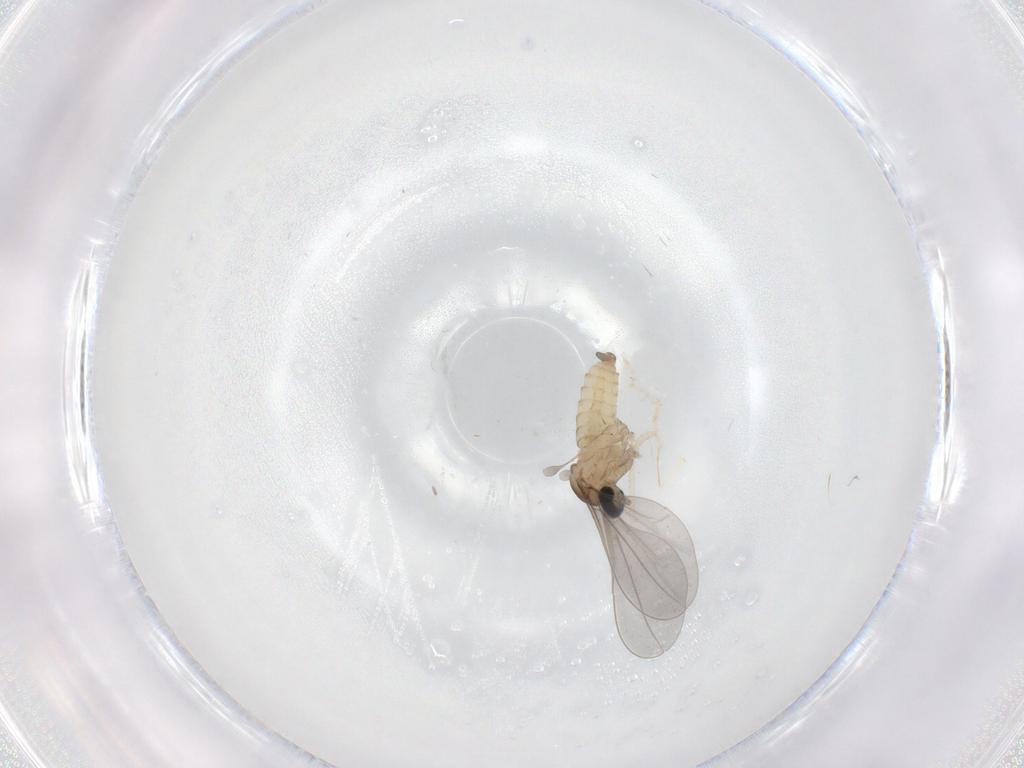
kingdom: Animalia
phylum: Arthropoda
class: Insecta
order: Diptera
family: Cecidomyiidae
